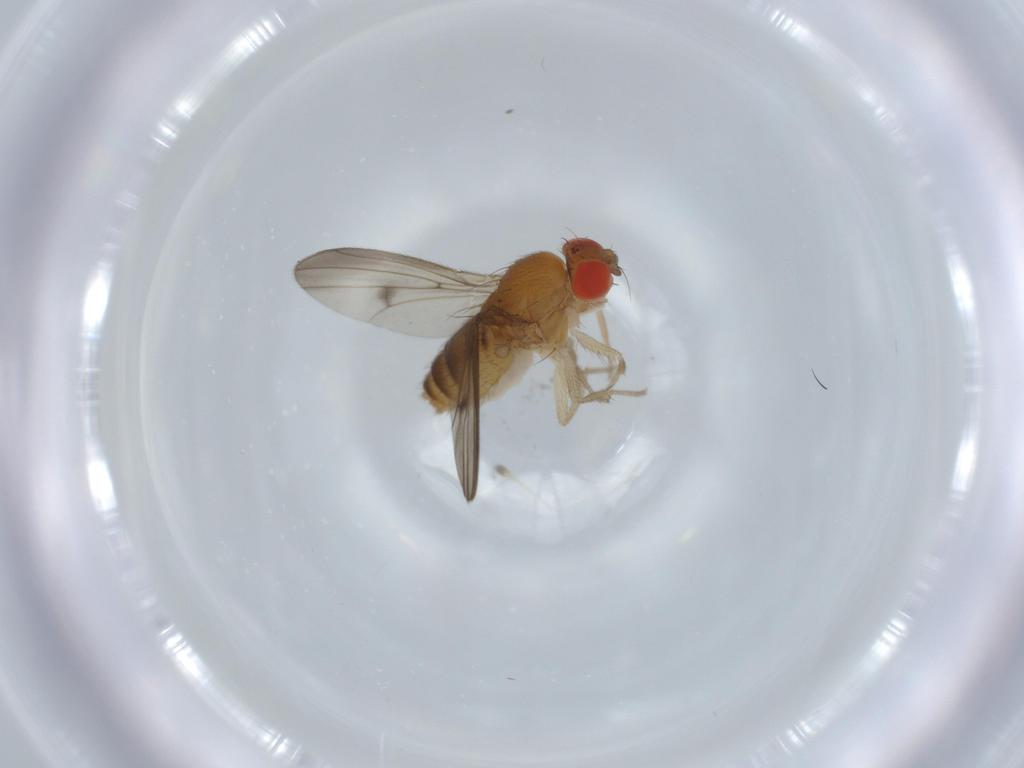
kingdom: Animalia
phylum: Arthropoda
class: Insecta
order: Diptera
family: Drosophilidae
